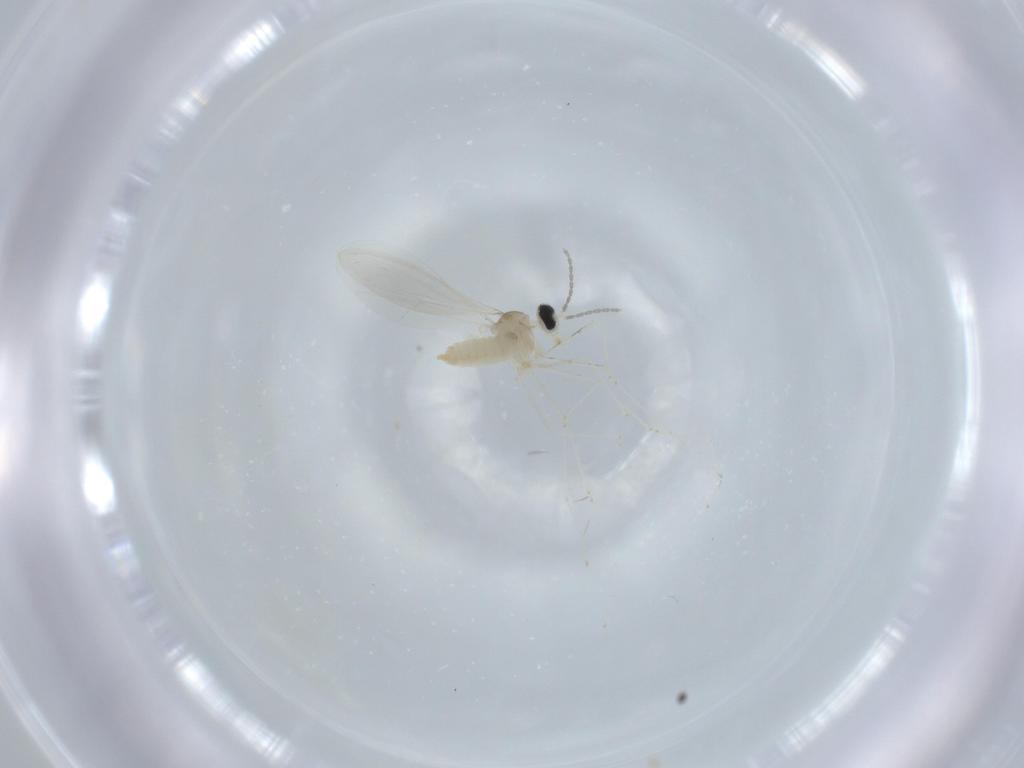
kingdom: Animalia
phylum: Arthropoda
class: Insecta
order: Diptera
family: Cecidomyiidae
